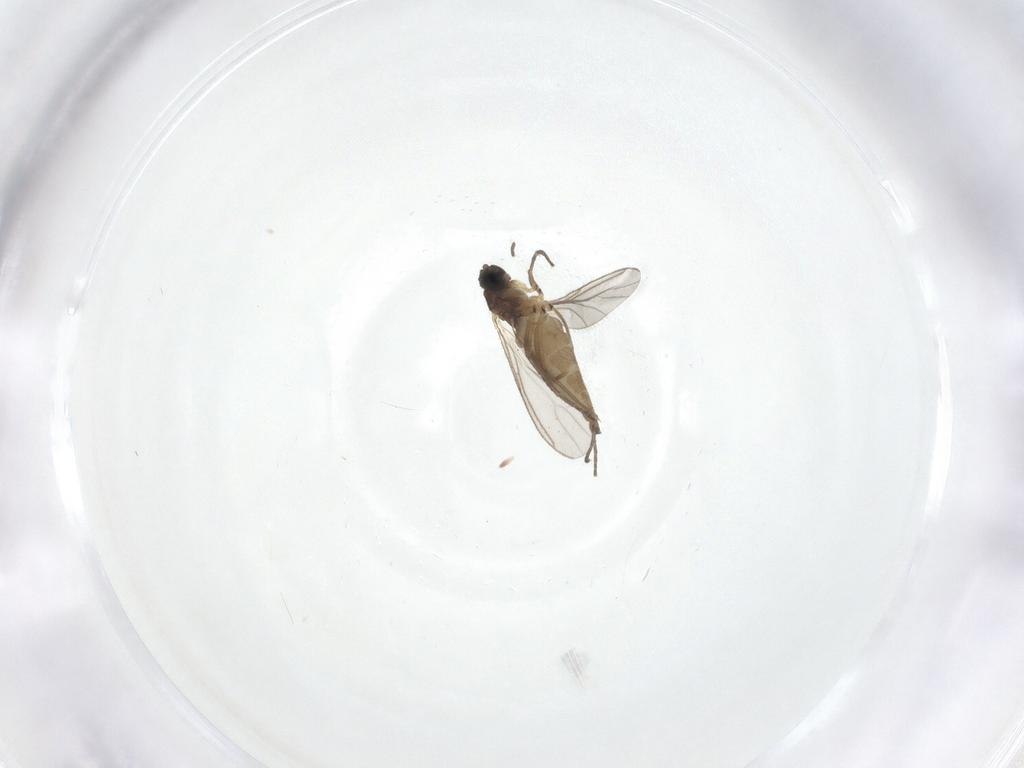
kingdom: Animalia
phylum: Arthropoda
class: Insecta
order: Diptera
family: Sciaridae
